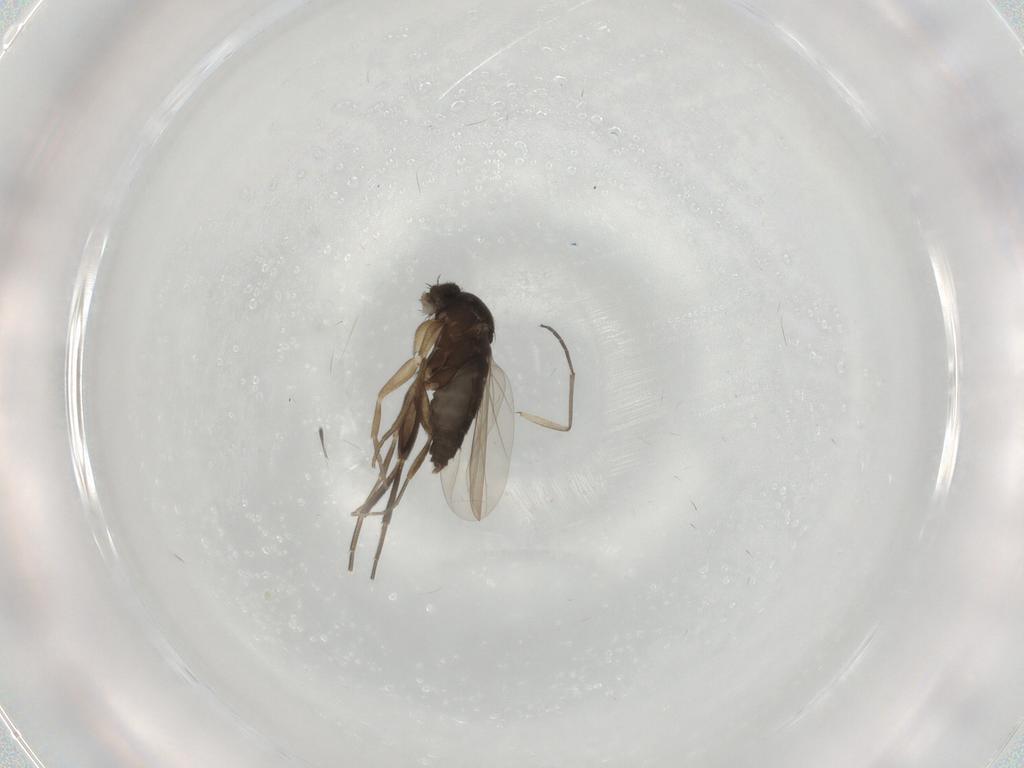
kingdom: Animalia
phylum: Arthropoda
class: Insecta
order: Diptera
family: Phoridae
